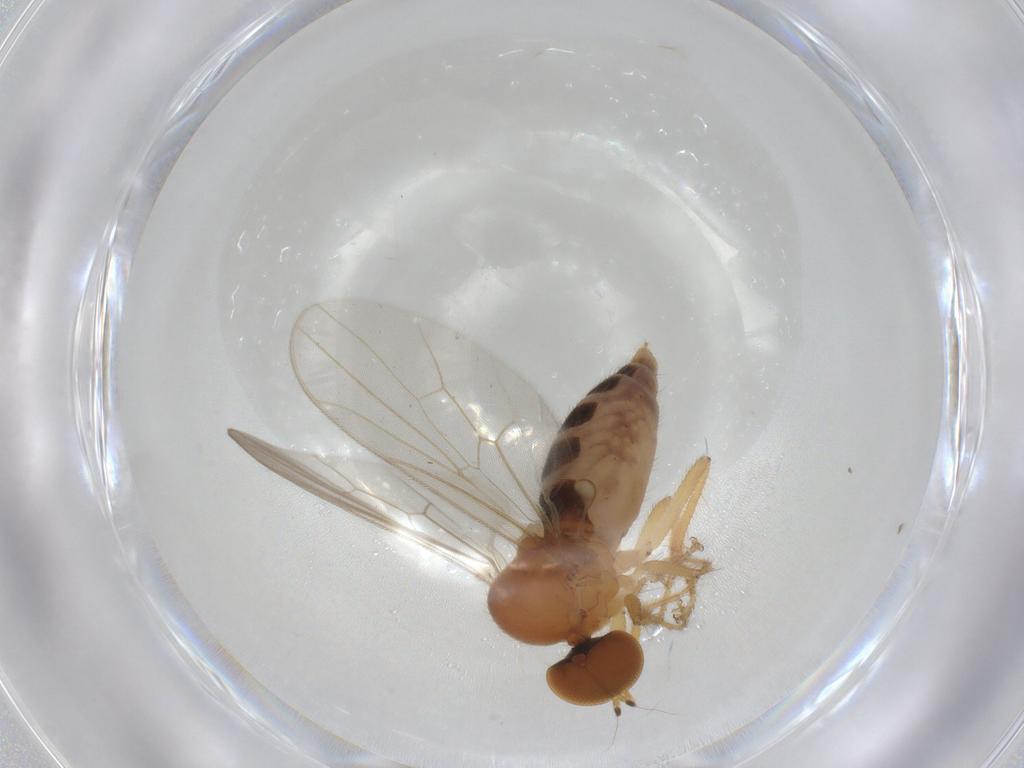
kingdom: Animalia
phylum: Arthropoda
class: Insecta
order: Diptera
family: Hybotidae
